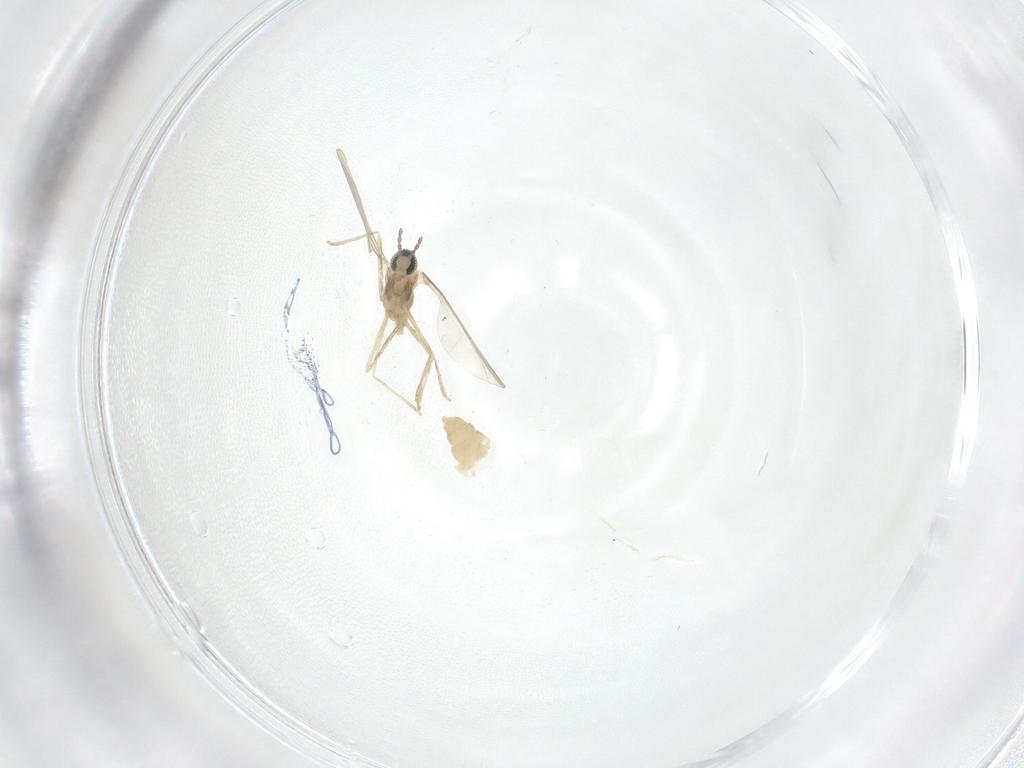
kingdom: Animalia
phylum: Arthropoda
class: Insecta
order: Diptera
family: Cecidomyiidae
